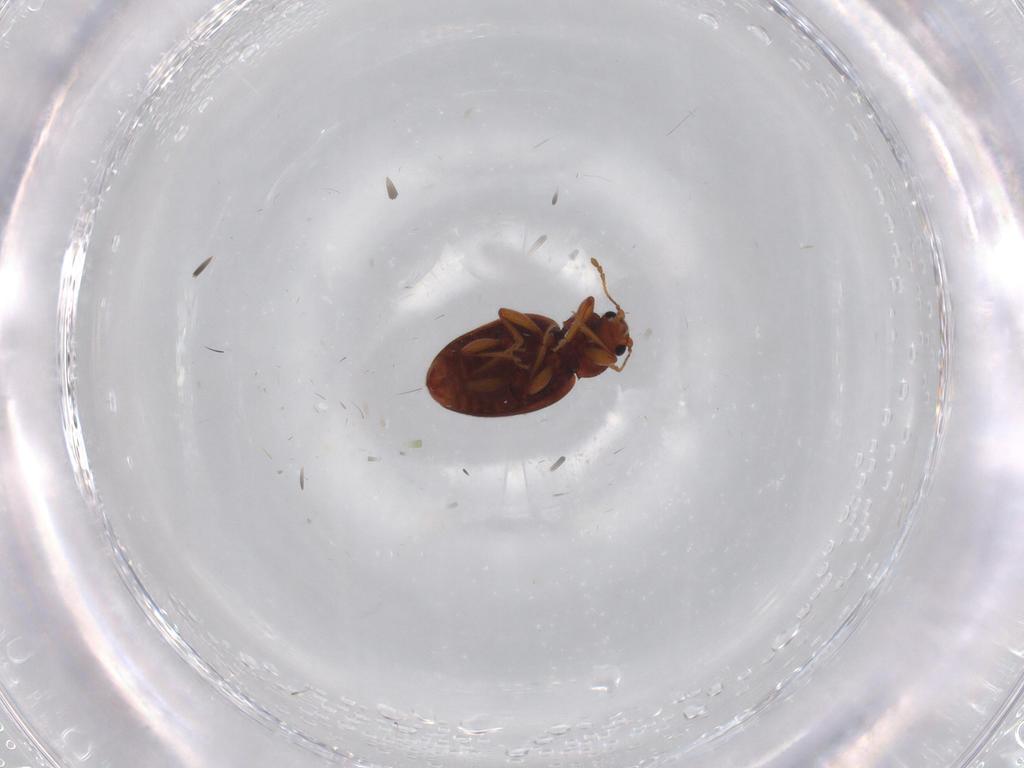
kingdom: Animalia
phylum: Arthropoda
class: Insecta
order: Coleoptera
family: Latridiidae
